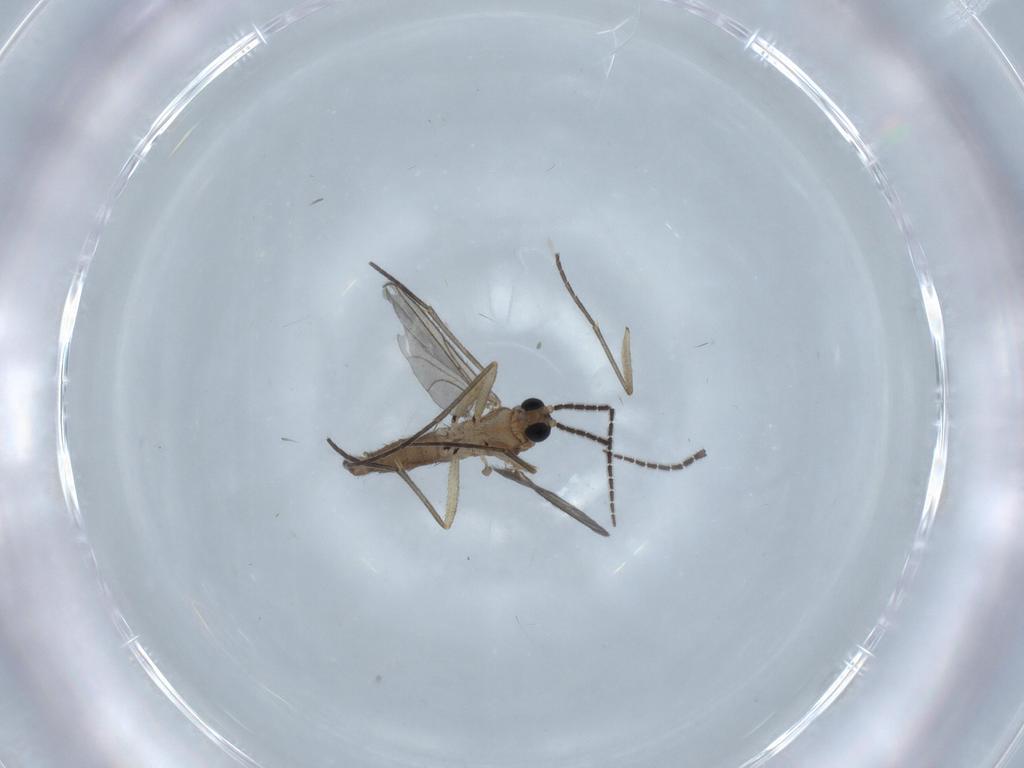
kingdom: Animalia
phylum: Arthropoda
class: Insecta
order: Diptera
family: Sciaridae
